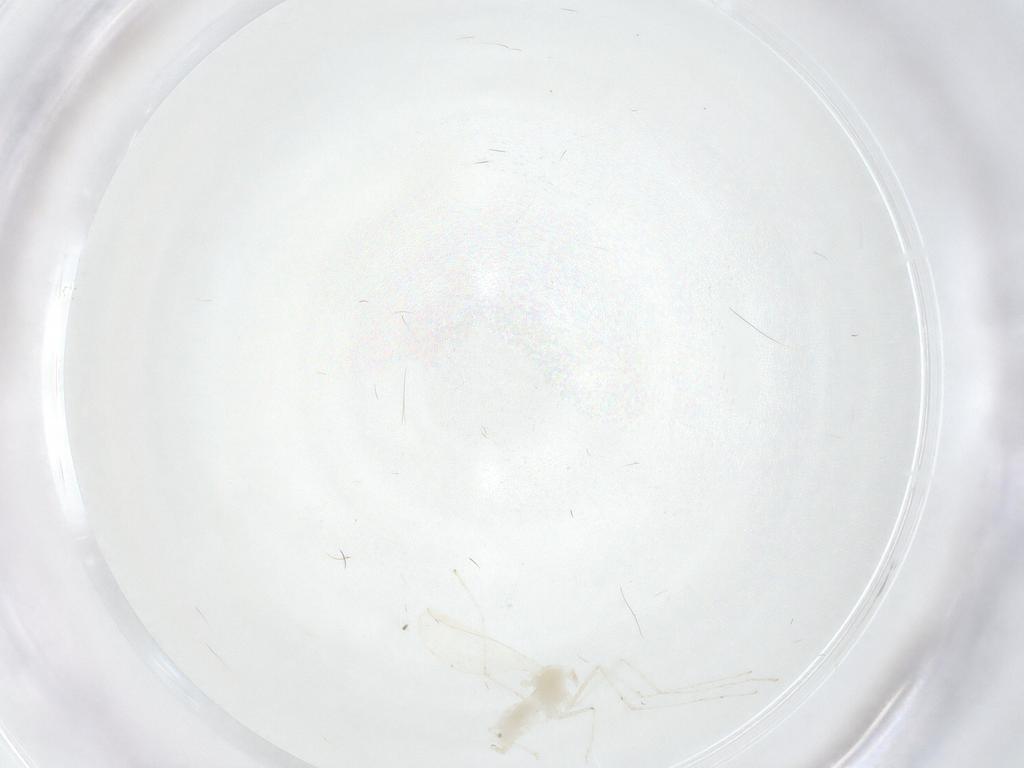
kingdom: Animalia
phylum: Arthropoda
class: Insecta
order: Diptera
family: Cecidomyiidae
